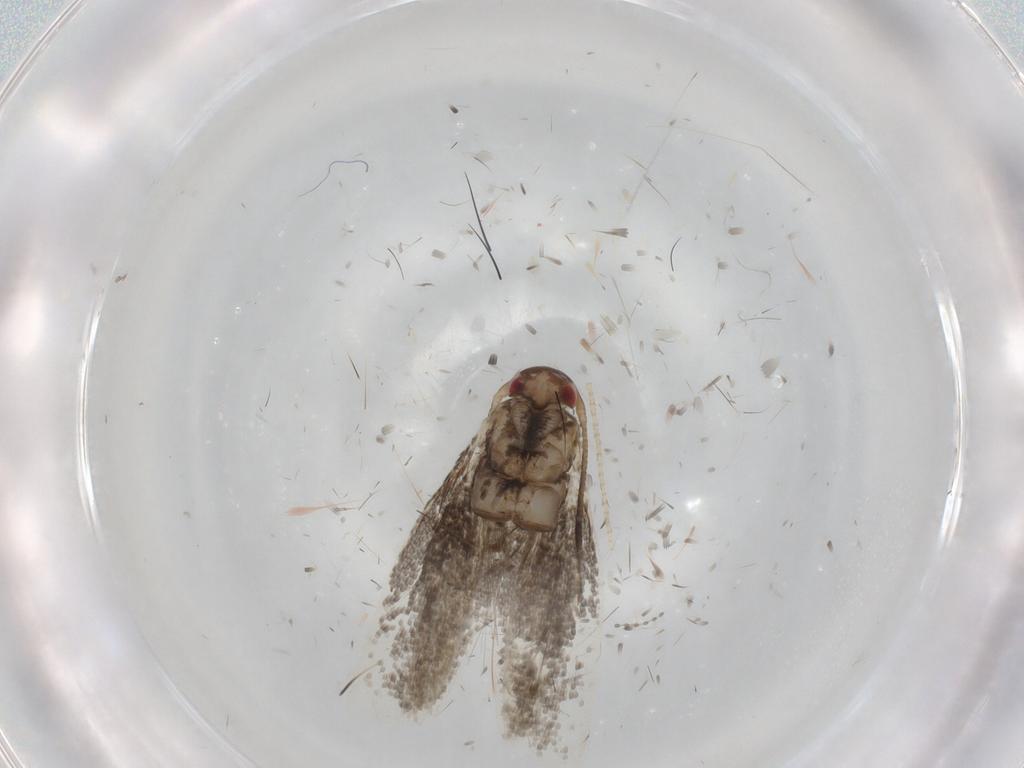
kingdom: Animalia
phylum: Arthropoda
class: Insecta
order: Lepidoptera
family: Momphidae
